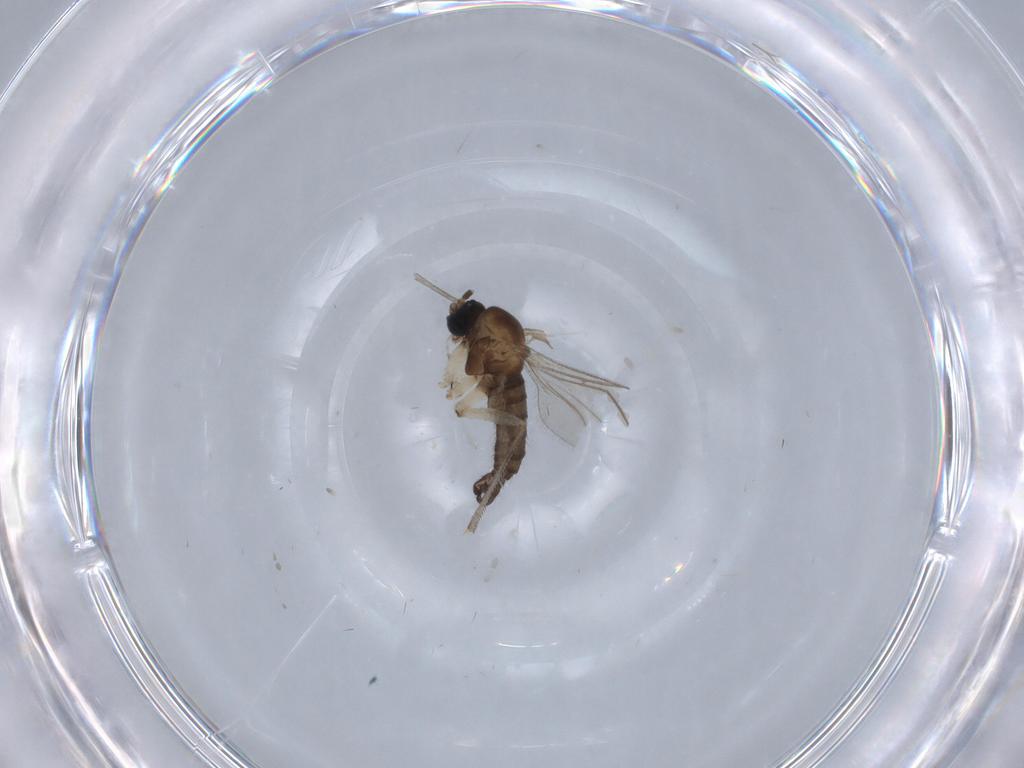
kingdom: Animalia
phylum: Arthropoda
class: Insecta
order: Diptera
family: Sciaridae
